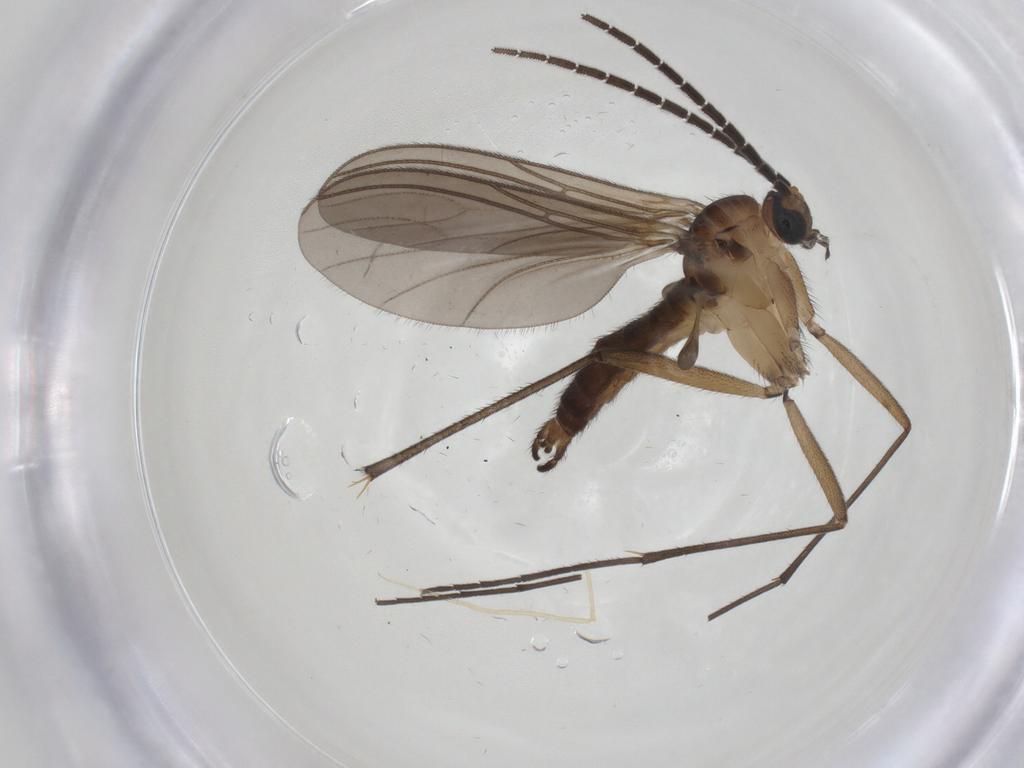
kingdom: Animalia
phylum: Arthropoda
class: Insecta
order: Diptera
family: Sciaridae
